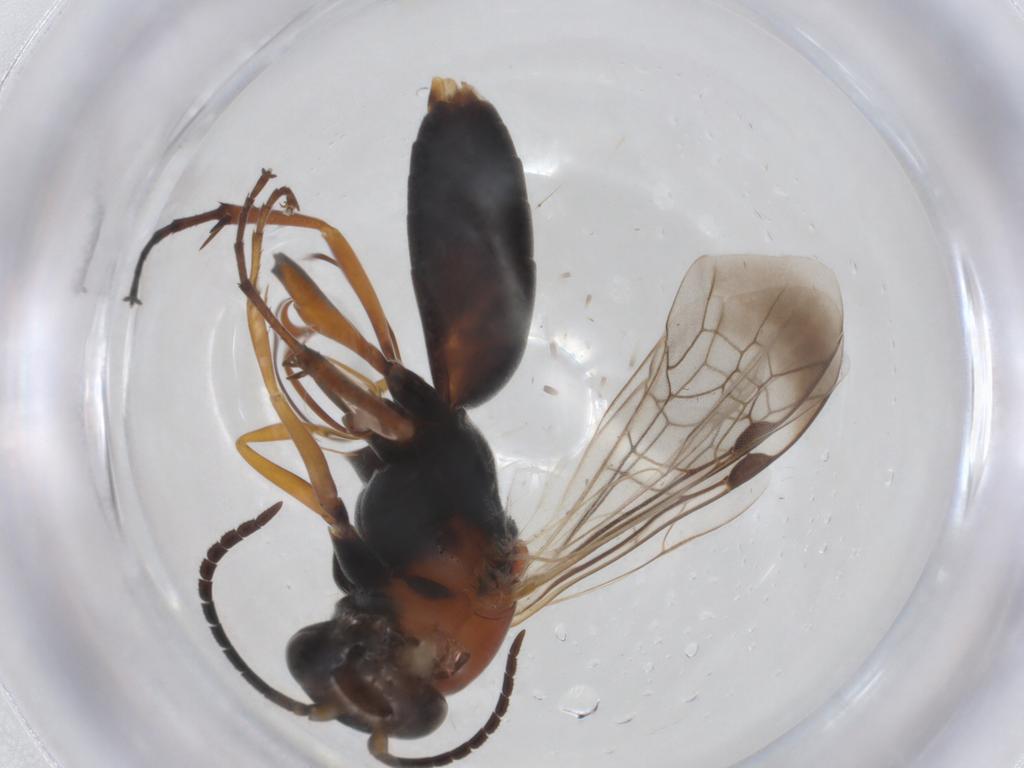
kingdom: Animalia
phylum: Arthropoda
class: Insecta
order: Hymenoptera
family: Pompilidae
